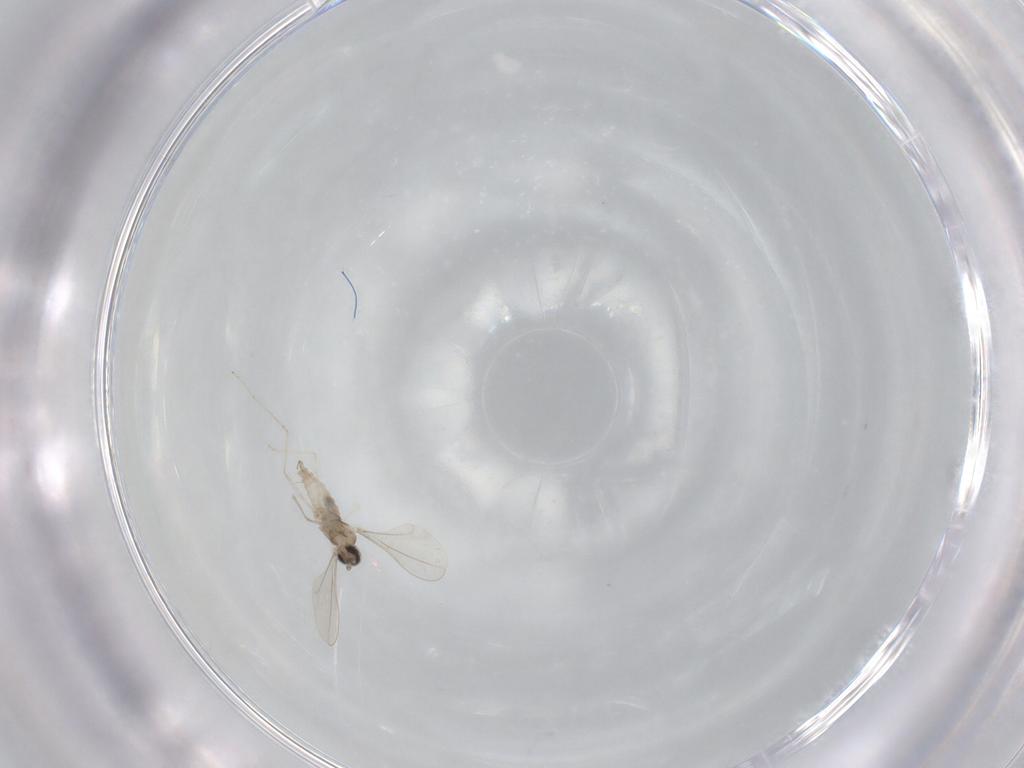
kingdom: Animalia
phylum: Arthropoda
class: Insecta
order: Diptera
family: Cecidomyiidae
